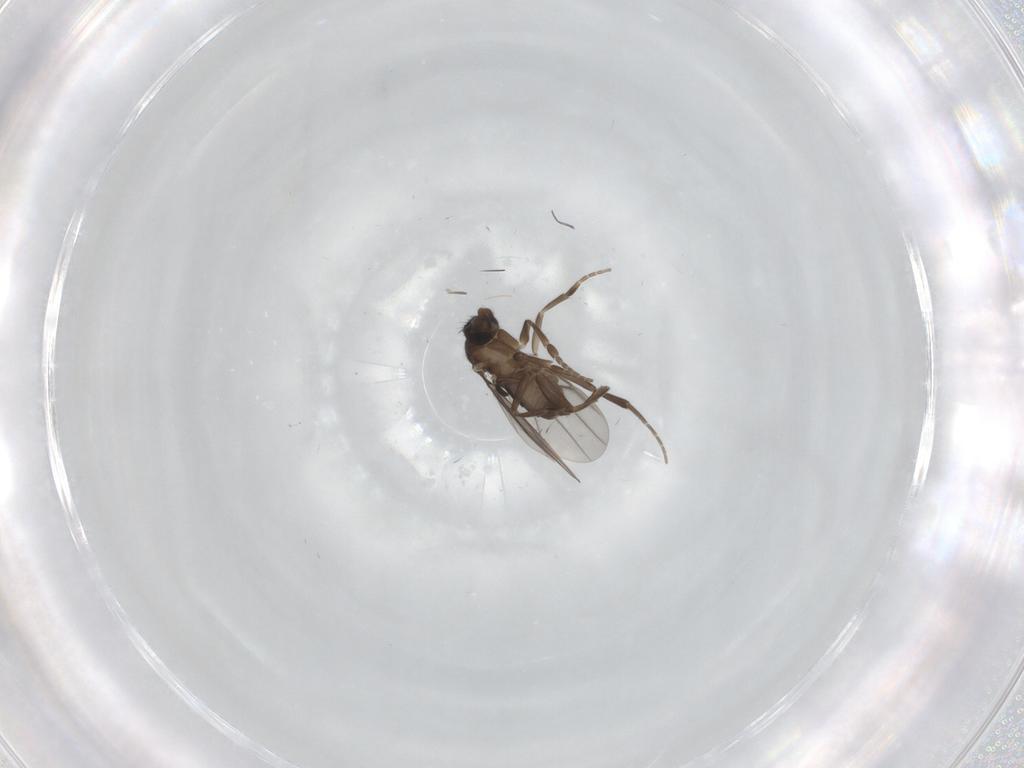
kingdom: Animalia
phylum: Arthropoda
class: Insecta
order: Diptera
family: Phoridae
